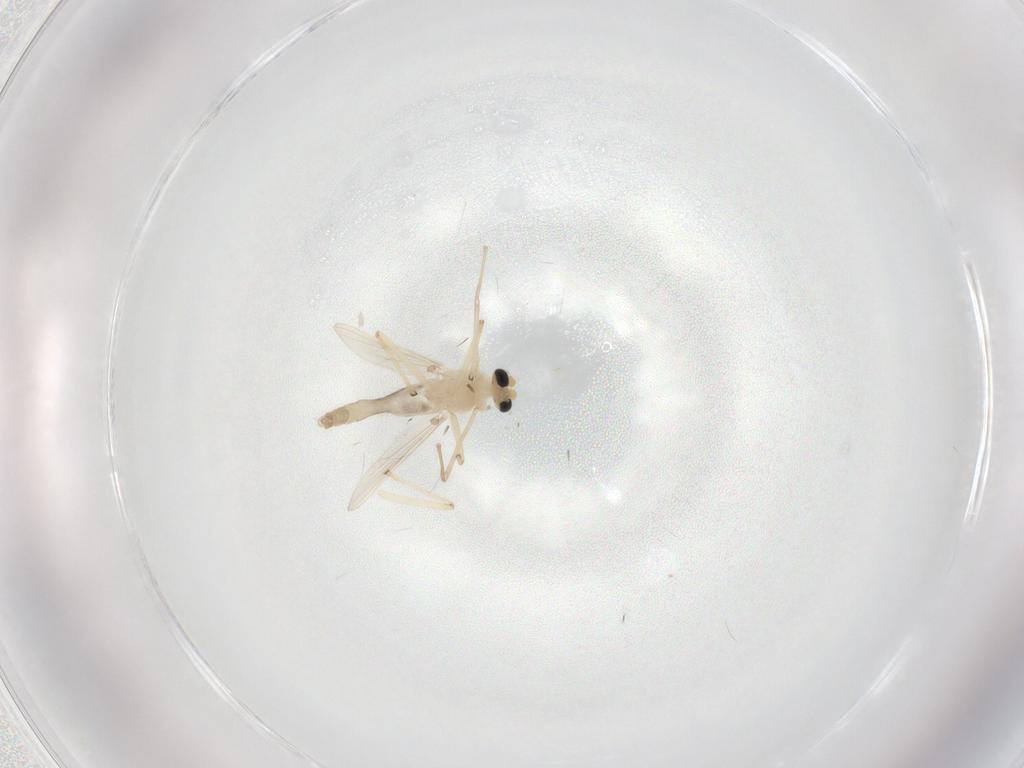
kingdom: Animalia
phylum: Arthropoda
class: Insecta
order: Diptera
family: Chironomidae
